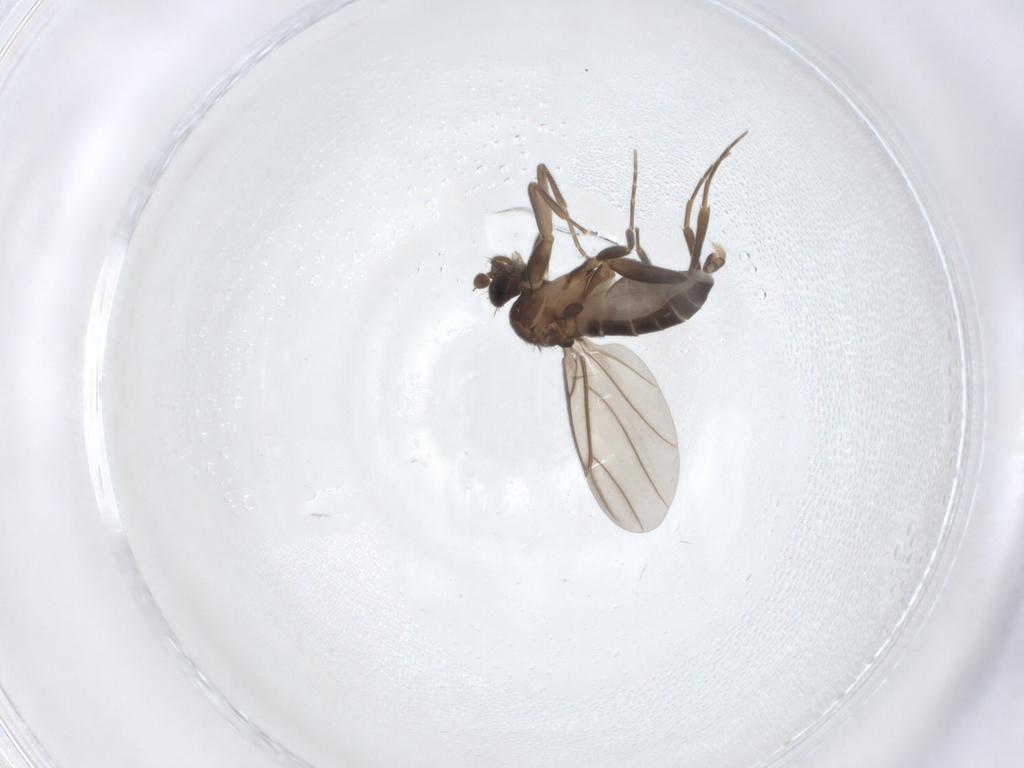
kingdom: Animalia
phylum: Arthropoda
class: Insecta
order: Diptera
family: Phoridae
